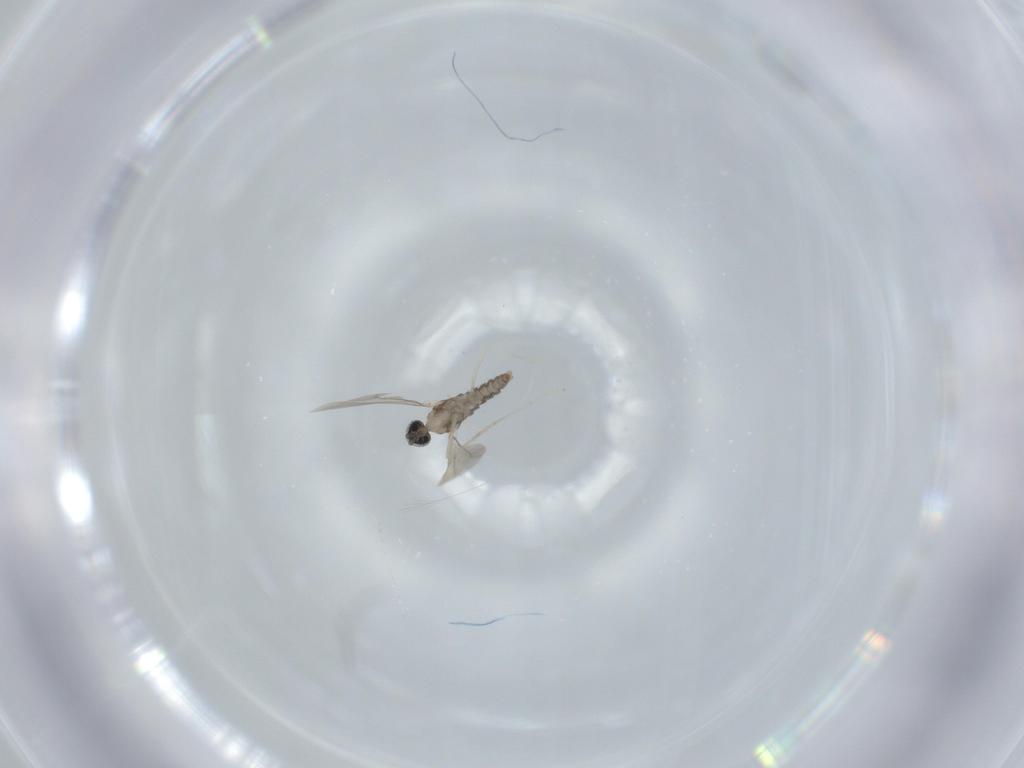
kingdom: Animalia
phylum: Arthropoda
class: Insecta
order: Diptera
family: Cecidomyiidae
